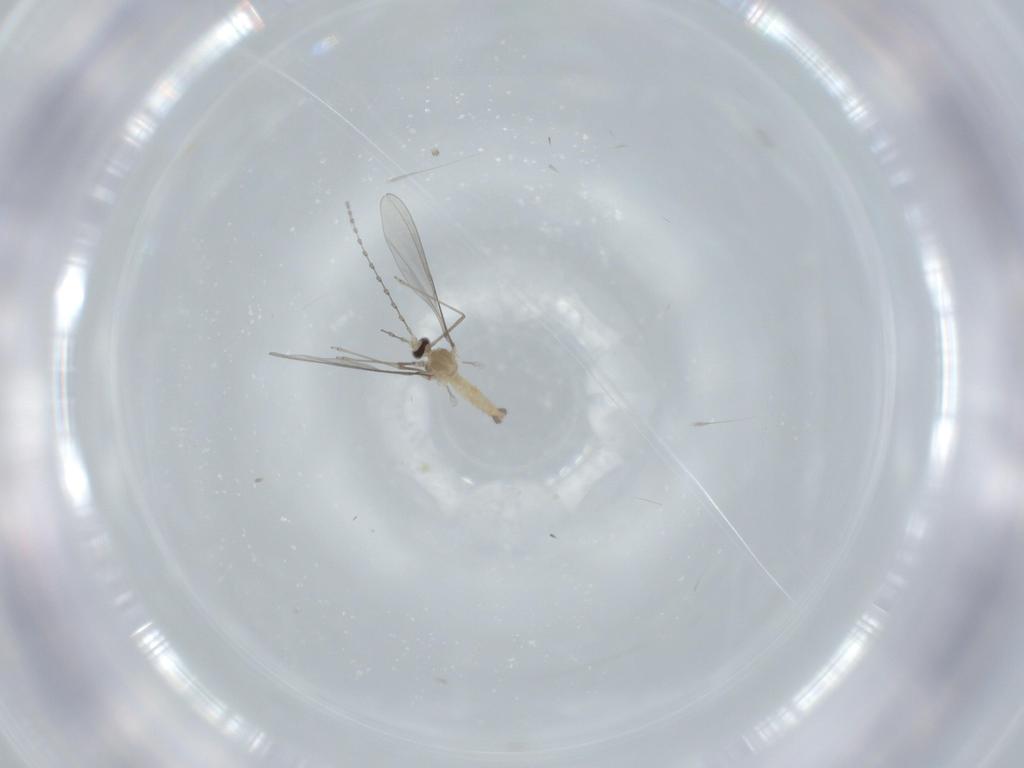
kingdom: Animalia
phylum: Arthropoda
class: Insecta
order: Diptera
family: Cecidomyiidae
